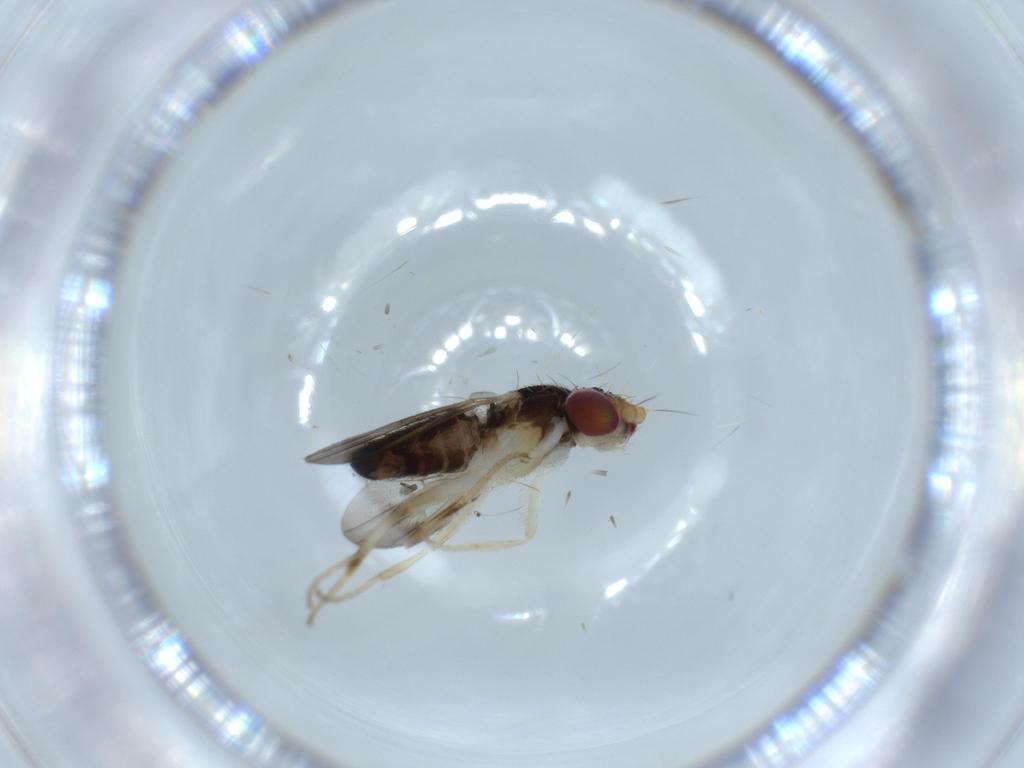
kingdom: Animalia
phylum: Arthropoda
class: Insecta
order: Diptera
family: Clusiidae
